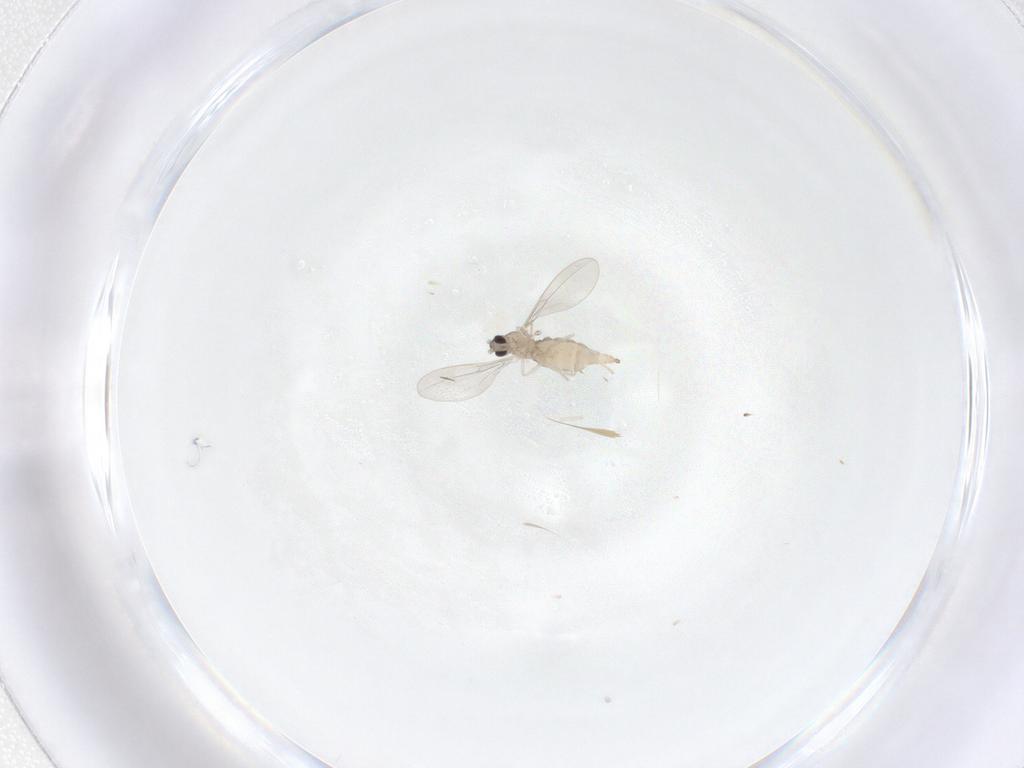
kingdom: Animalia
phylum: Arthropoda
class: Insecta
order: Diptera
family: Cecidomyiidae
